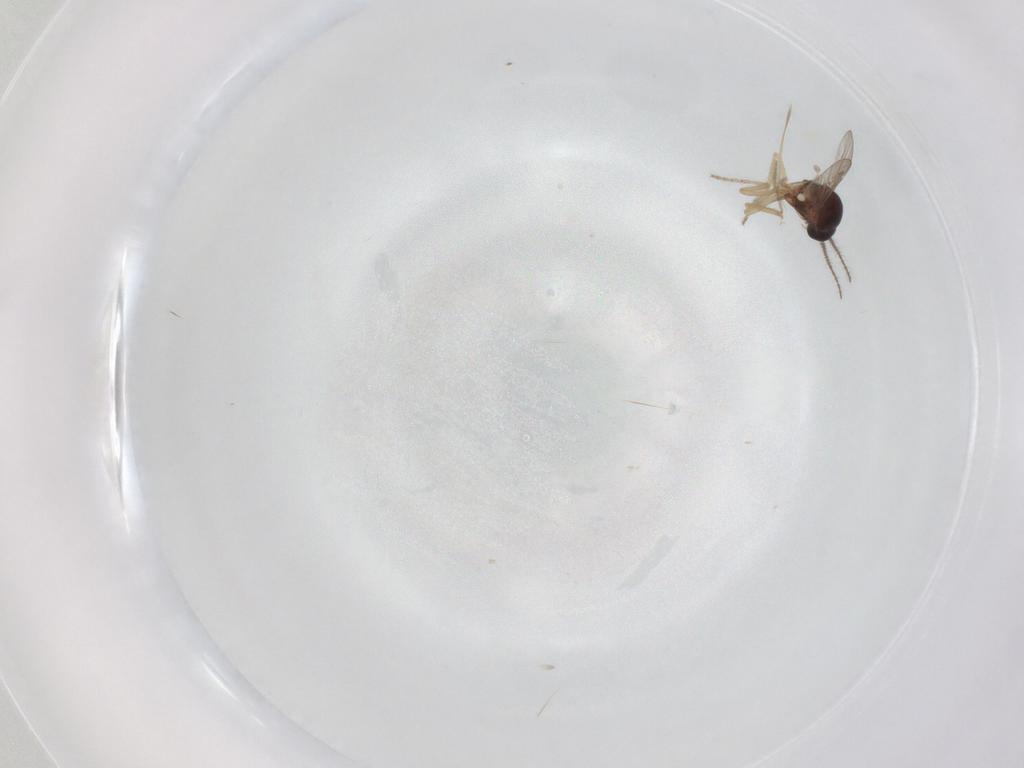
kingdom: Animalia
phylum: Arthropoda
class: Insecta
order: Diptera
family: Ceratopogonidae
